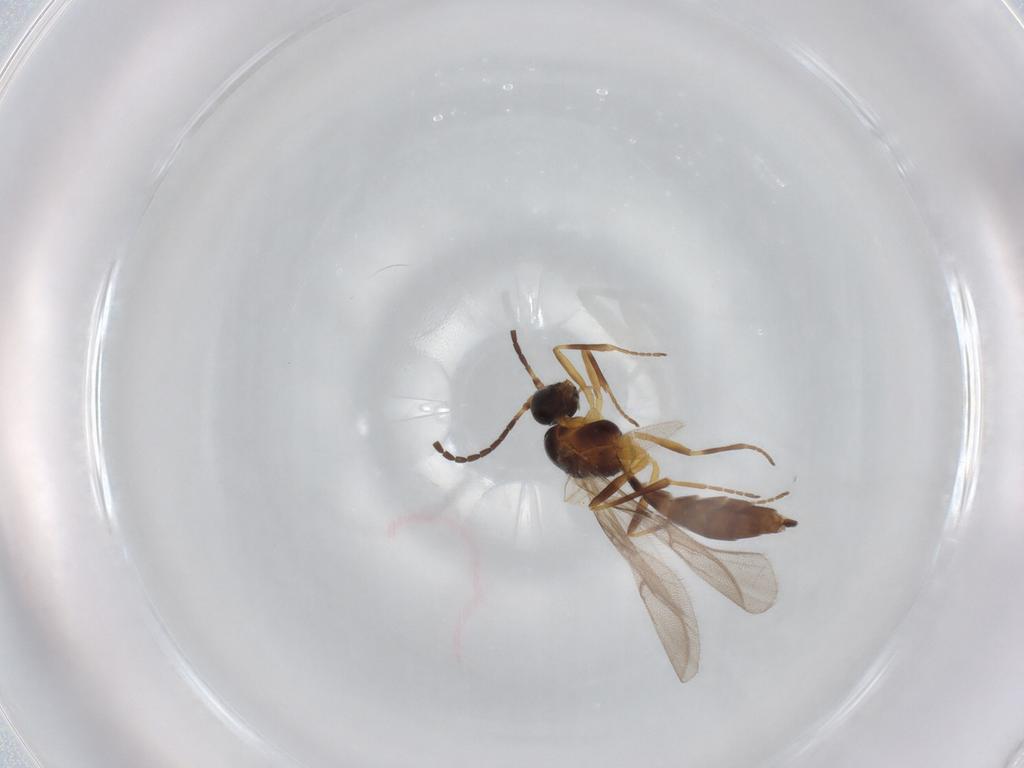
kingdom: Animalia
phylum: Arthropoda
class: Insecta
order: Hymenoptera
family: Braconidae
